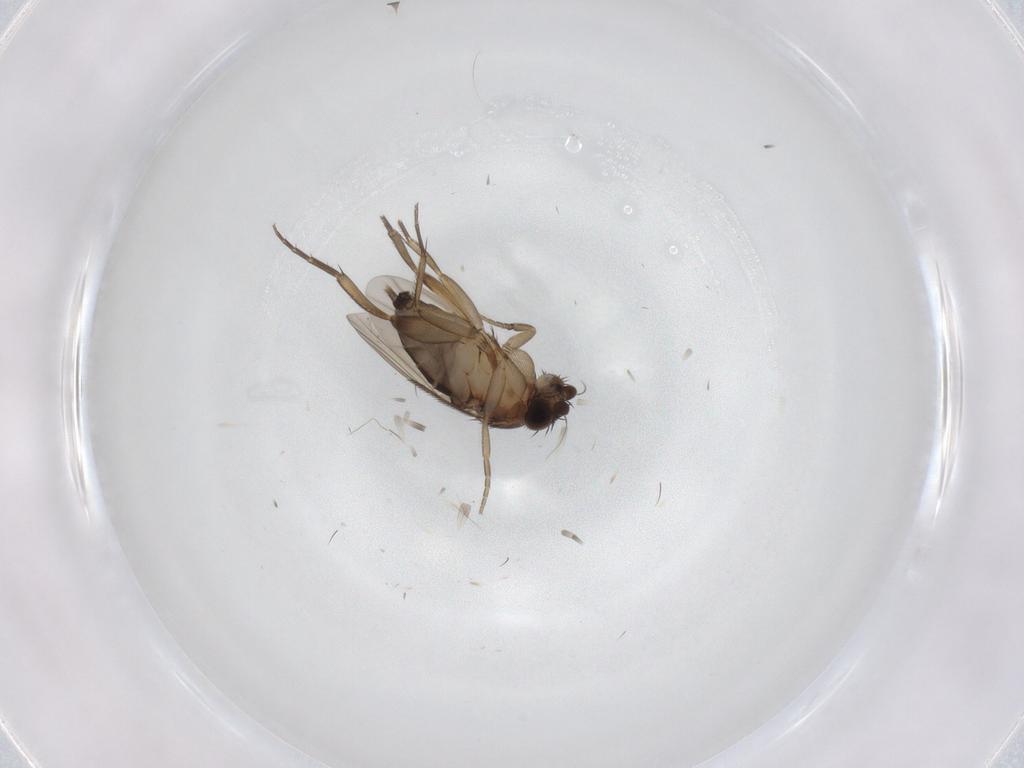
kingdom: Animalia
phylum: Arthropoda
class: Insecta
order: Diptera
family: Phoridae
